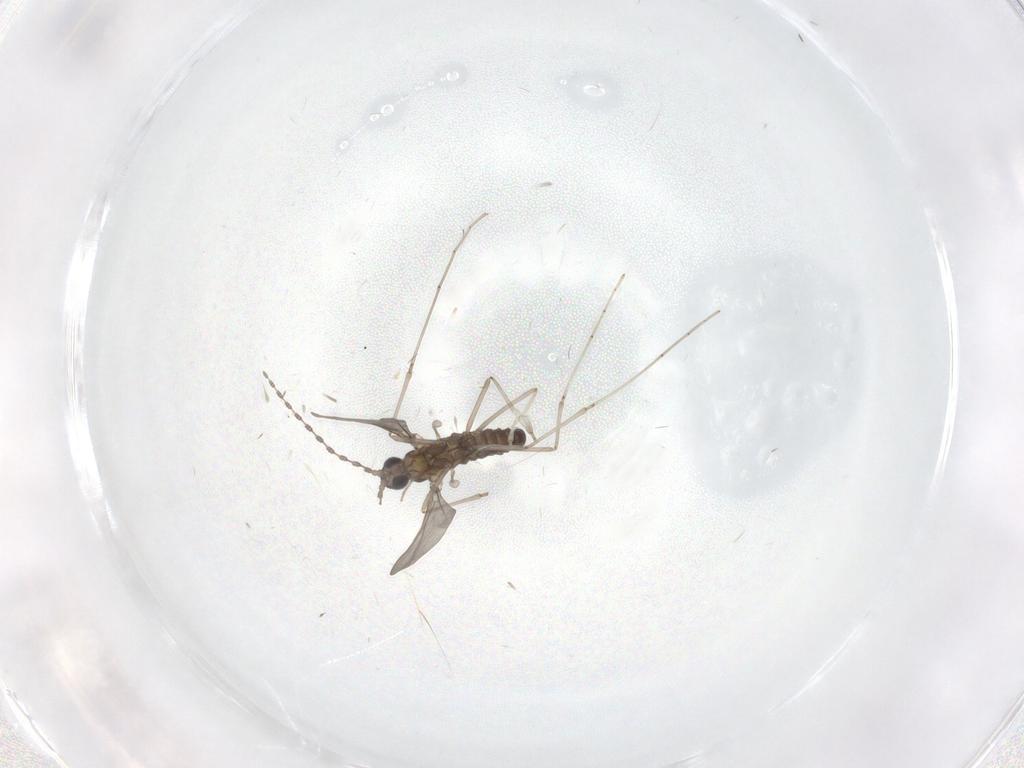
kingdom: Animalia
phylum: Arthropoda
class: Insecta
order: Diptera
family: Cecidomyiidae
